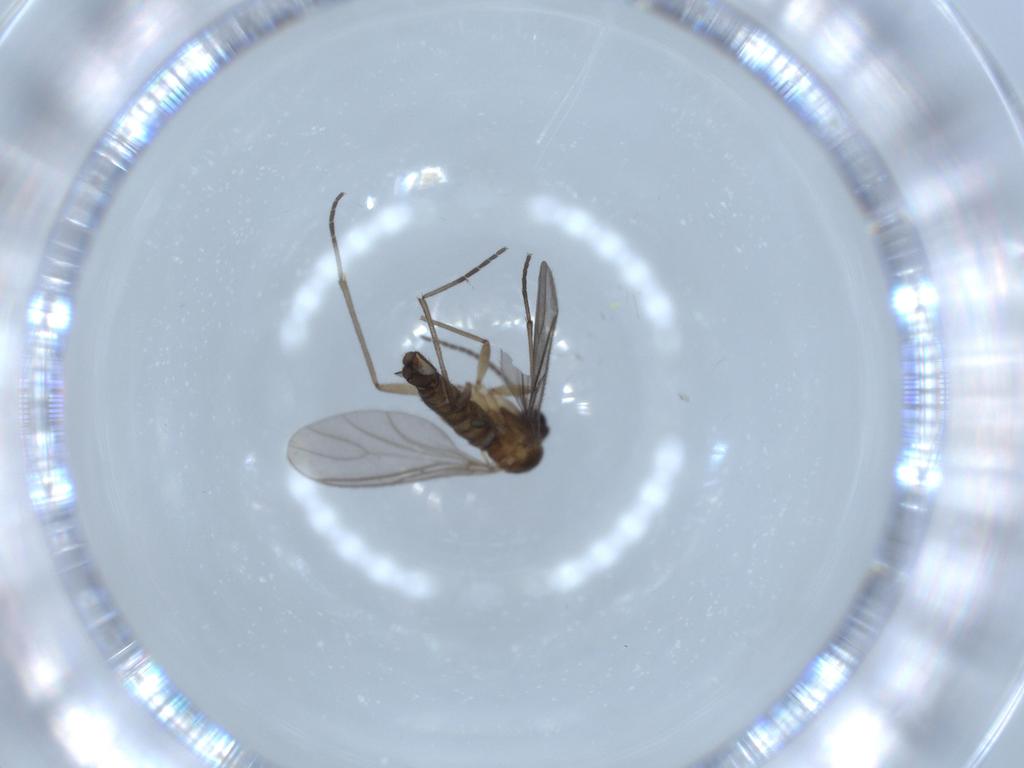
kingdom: Animalia
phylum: Arthropoda
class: Insecta
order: Diptera
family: Sciaridae
